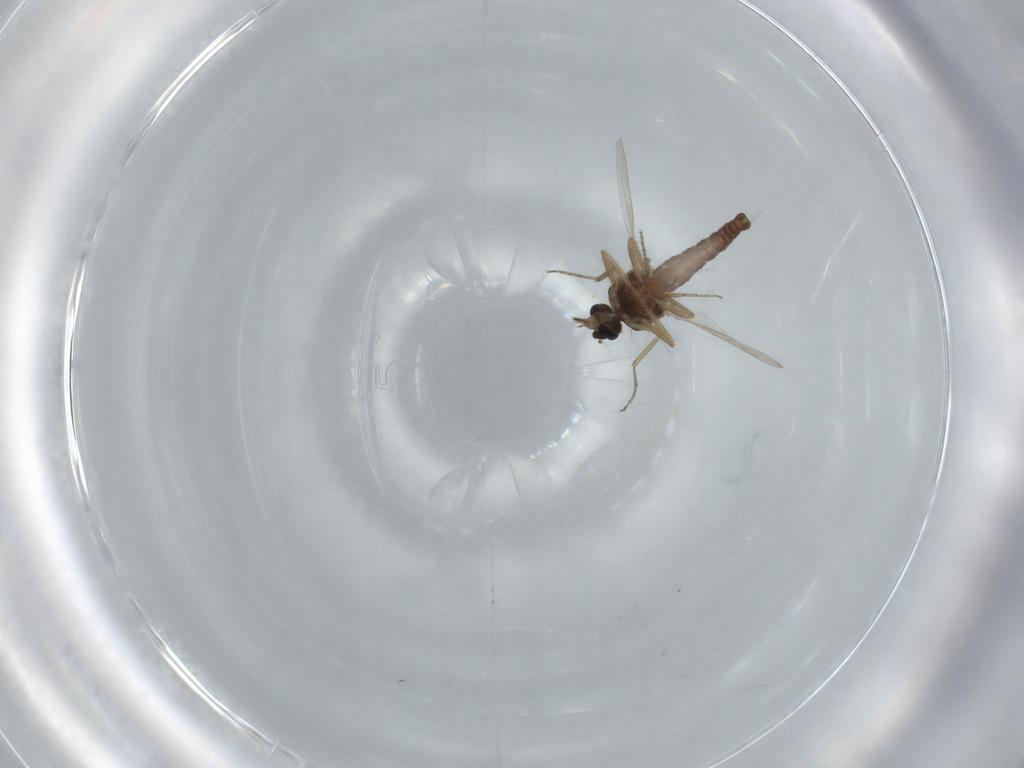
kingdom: Animalia
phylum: Arthropoda
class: Insecta
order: Diptera
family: Ceratopogonidae
